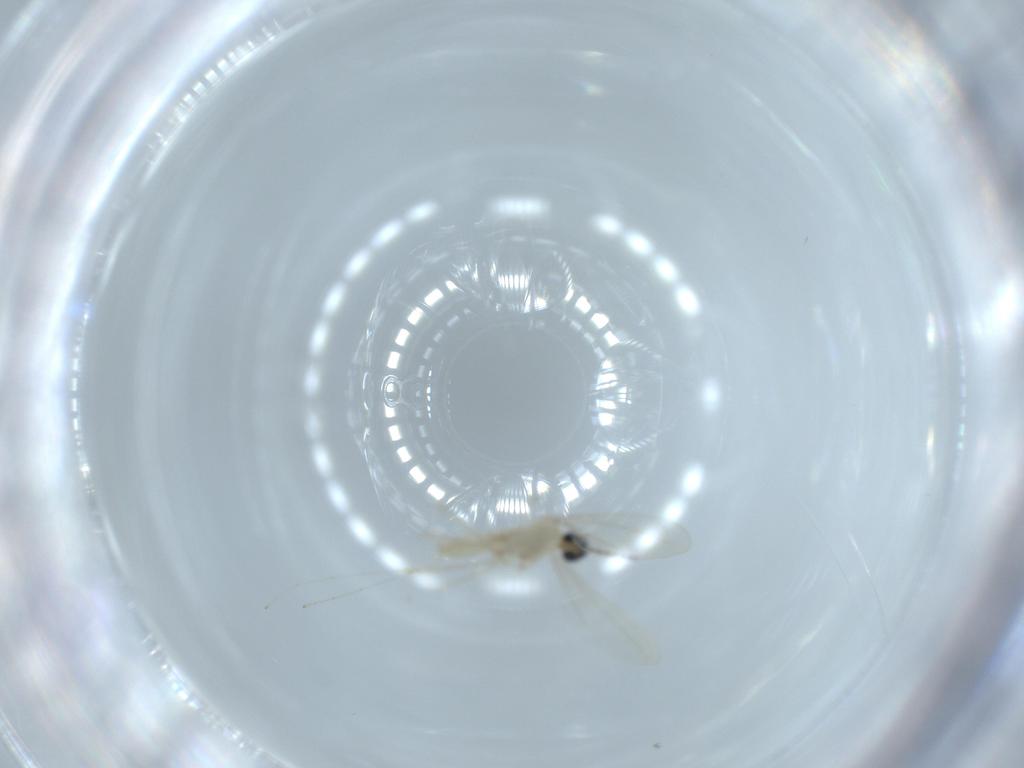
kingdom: Animalia
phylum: Arthropoda
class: Insecta
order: Diptera
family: Cecidomyiidae
